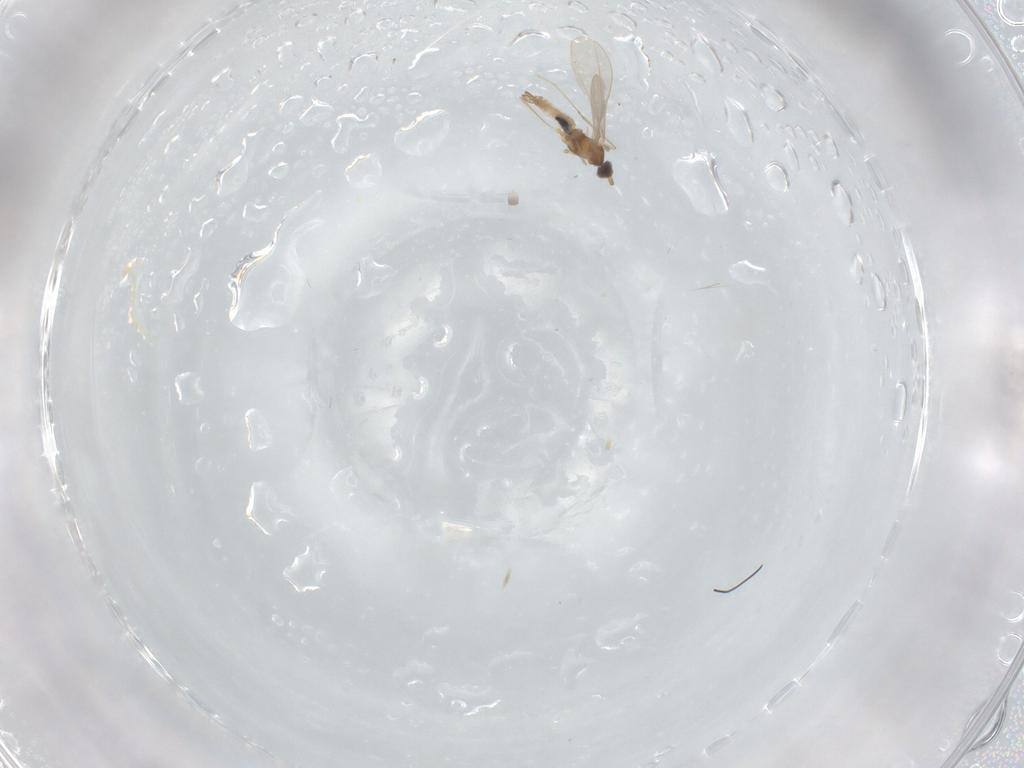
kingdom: Animalia
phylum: Arthropoda
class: Insecta
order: Diptera
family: Cecidomyiidae
